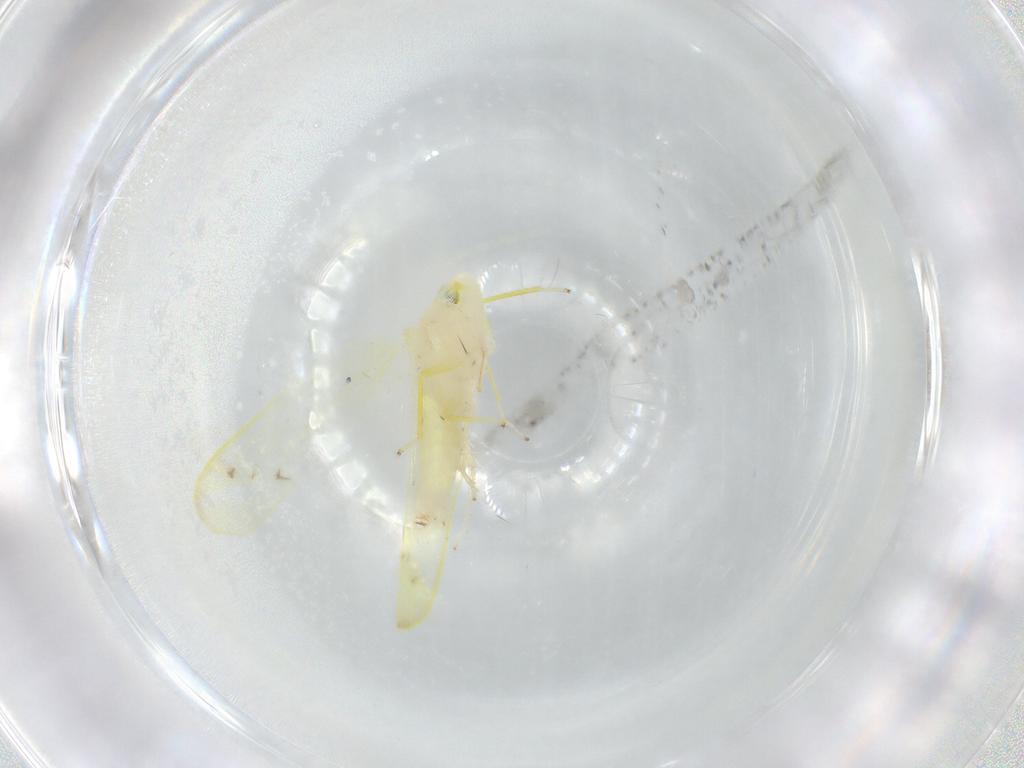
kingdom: Animalia
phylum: Arthropoda
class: Insecta
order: Hemiptera
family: Cicadellidae
